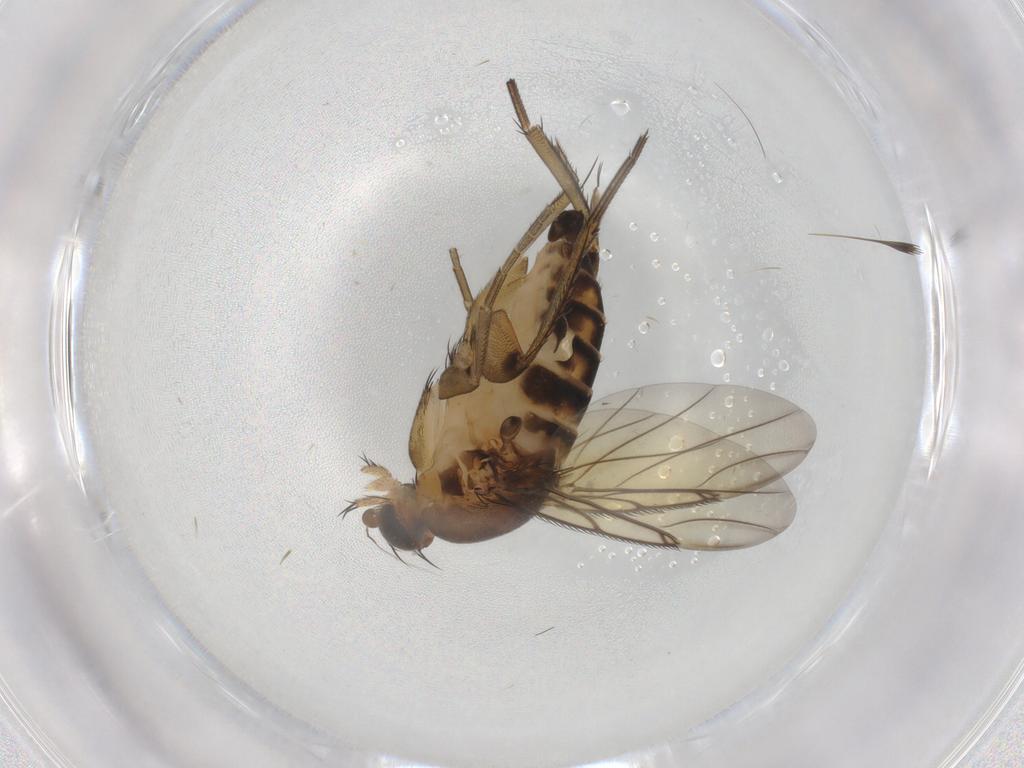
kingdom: Animalia
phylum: Arthropoda
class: Insecta
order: Diptera
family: Phoridae
